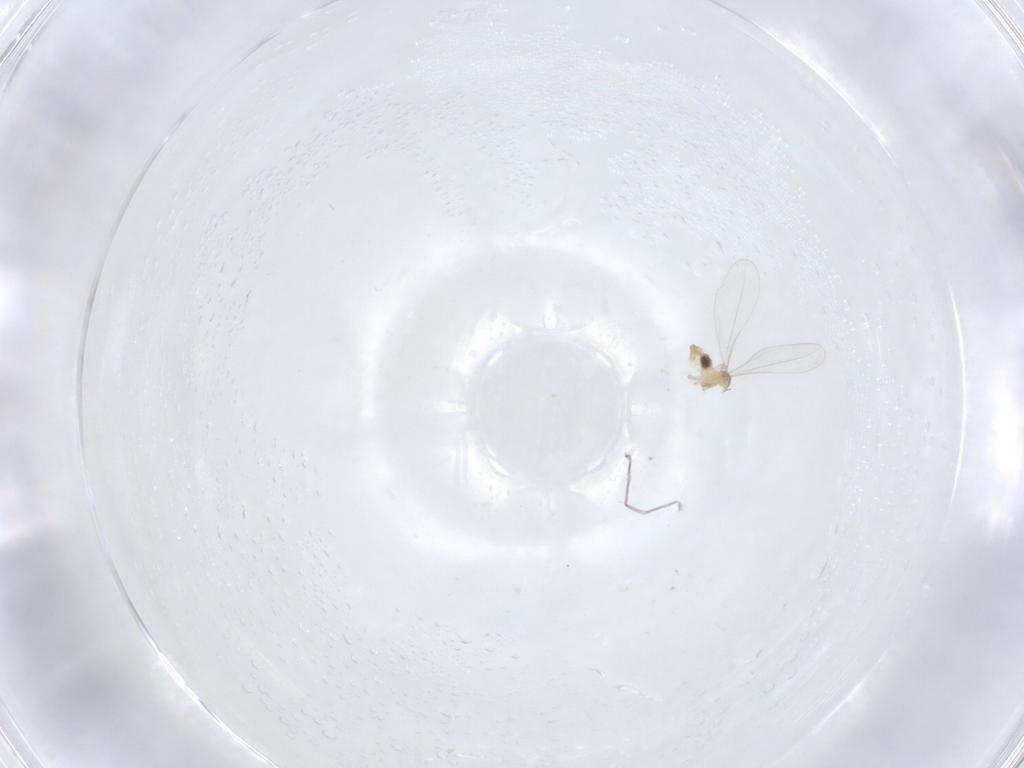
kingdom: Animalia
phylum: Arthropoda
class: Insecta
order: Diptera
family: Cecidomyiidae
